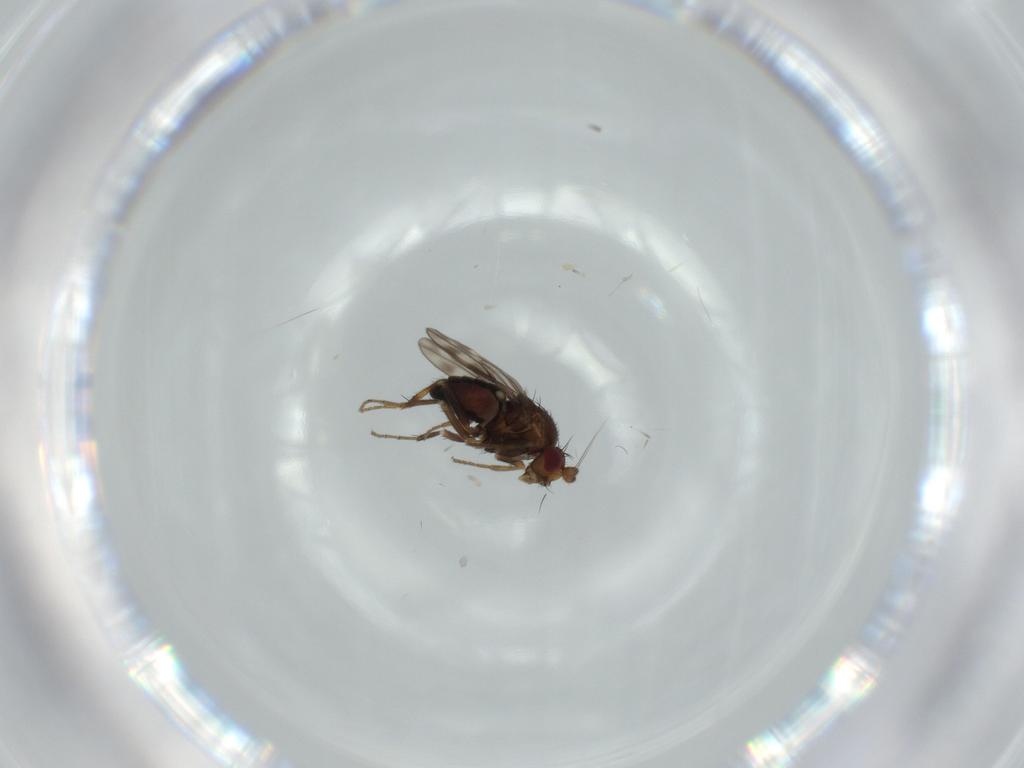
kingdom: Animalia
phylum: Arthropoda
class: Insecta
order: Diptera
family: Sphaeroceridae
